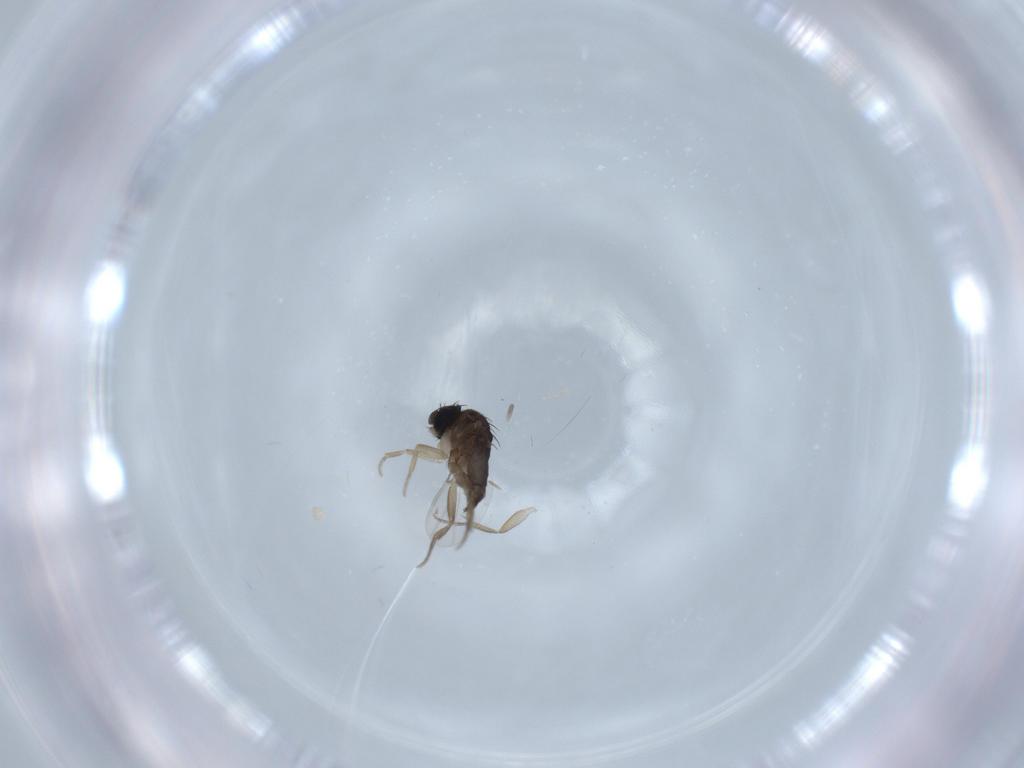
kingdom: Animalia
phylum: Arthropoda
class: Insecta
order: Diptera
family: Phoridae
